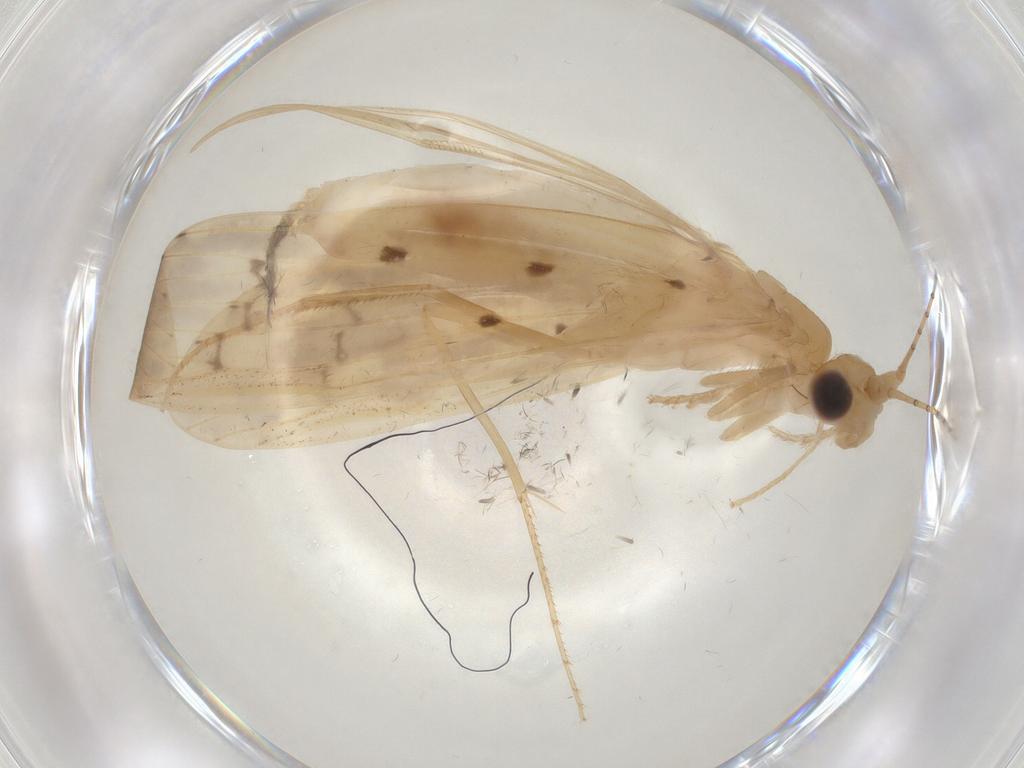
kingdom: Animalia
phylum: Arthropoda
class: Insecta
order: Trichoptera
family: Leptoceridae
